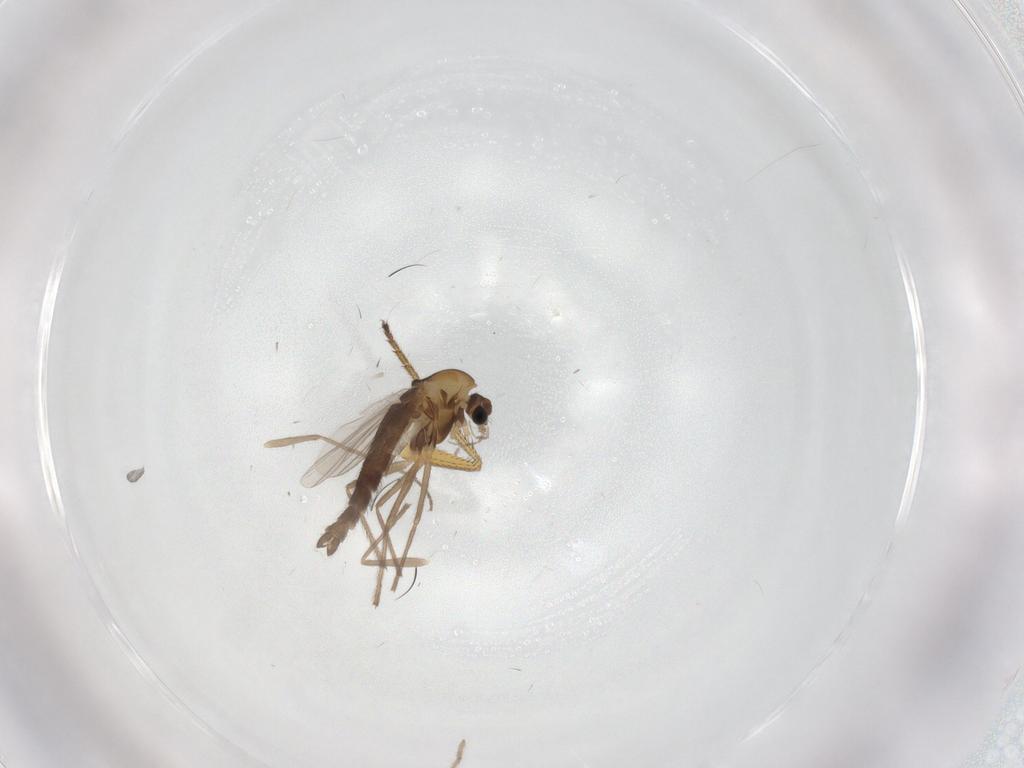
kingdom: Animalia
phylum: Arthropoda
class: Insecta
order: Diptera
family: Chironomidae
